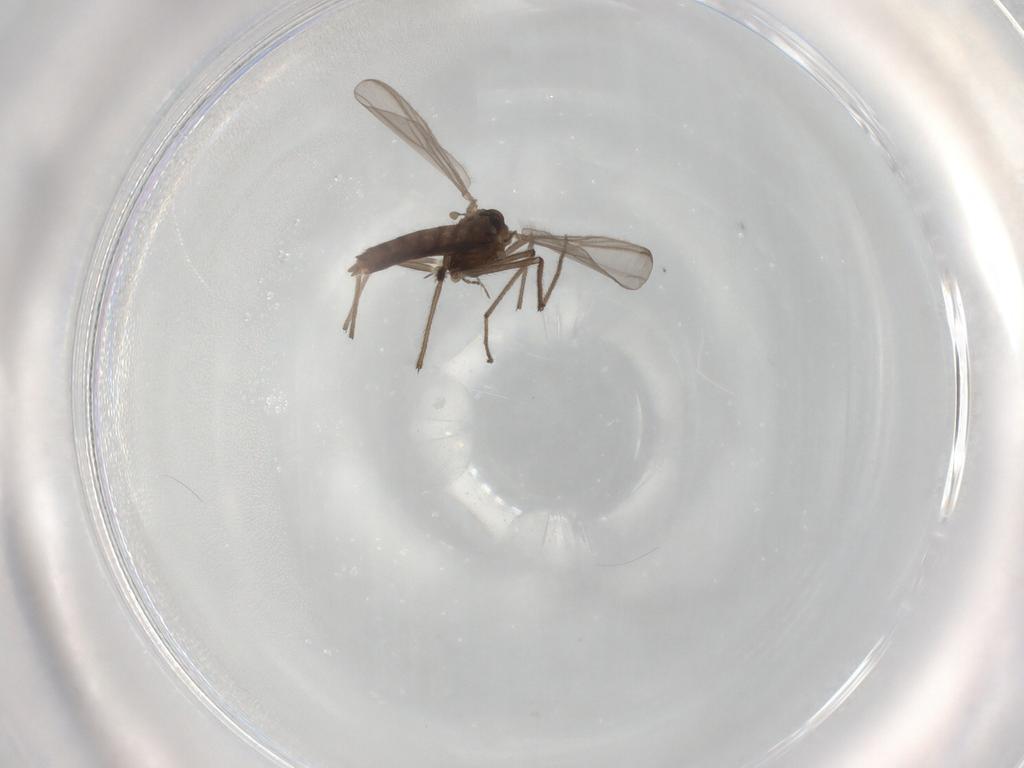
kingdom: Animalia
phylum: Arthropoda
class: Insecta
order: Diptera
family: Chironomidae
